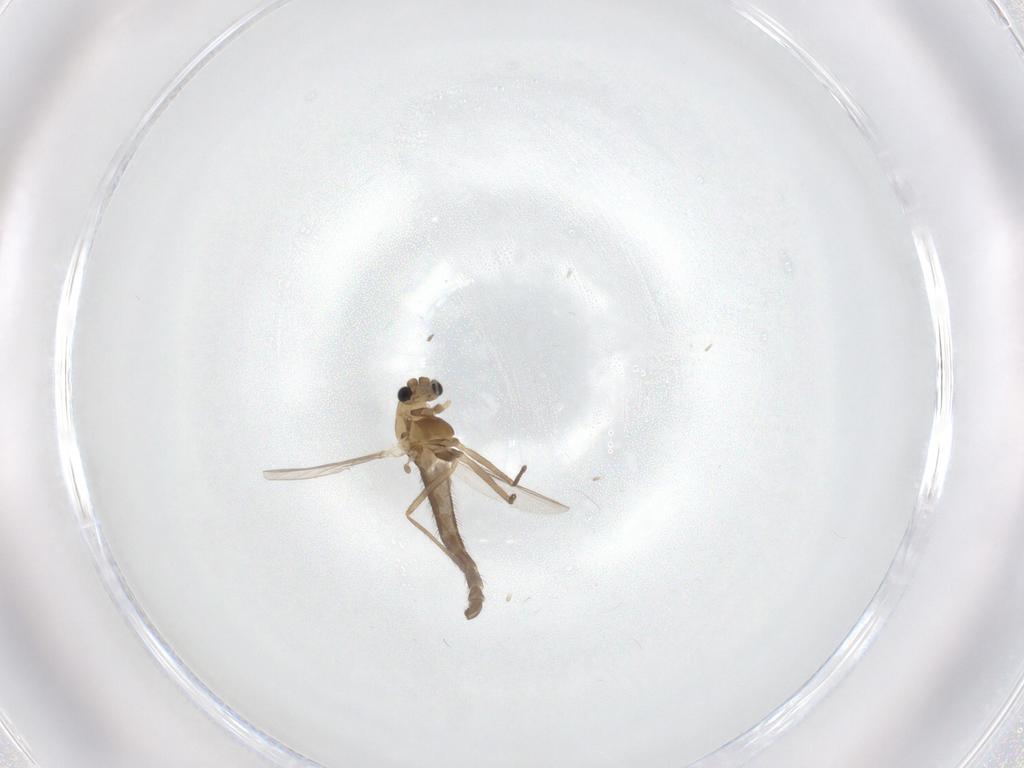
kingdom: Animalia
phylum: Arthropoda
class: Insecta
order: Diptera
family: Chironomidae
